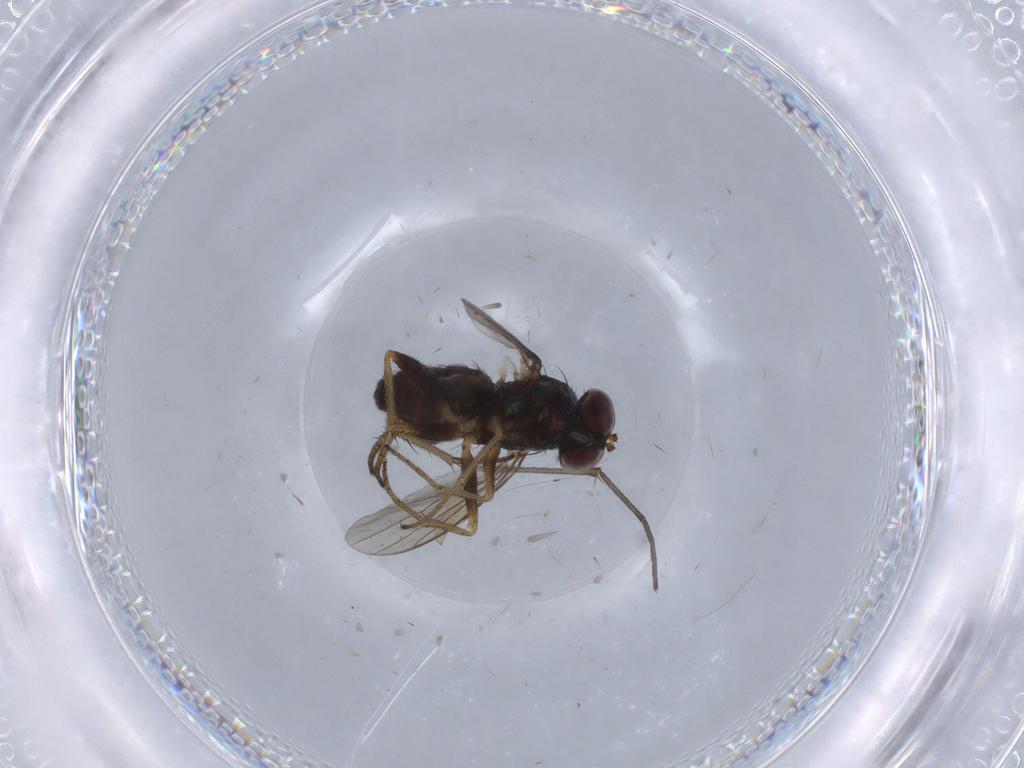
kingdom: Animalia
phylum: Arthropoda
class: Insecta
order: Diptera
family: Sciaridae
